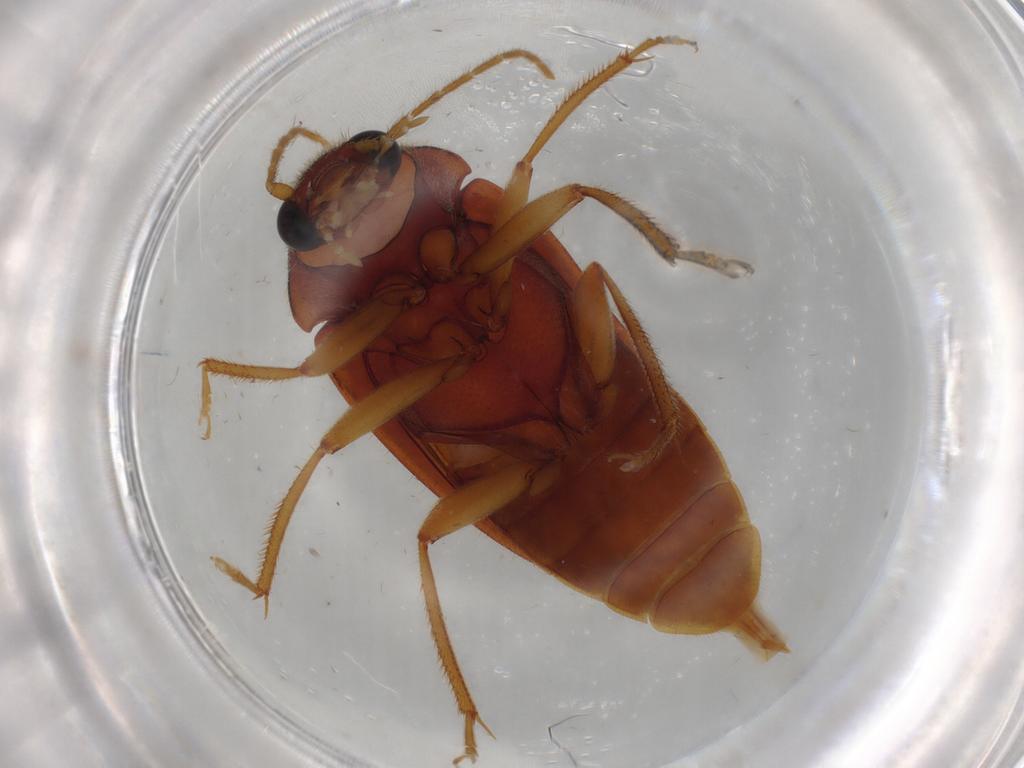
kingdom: Animalia
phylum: Arthropoda
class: Insecta
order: Coleoptera
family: Ptilodactylidae
